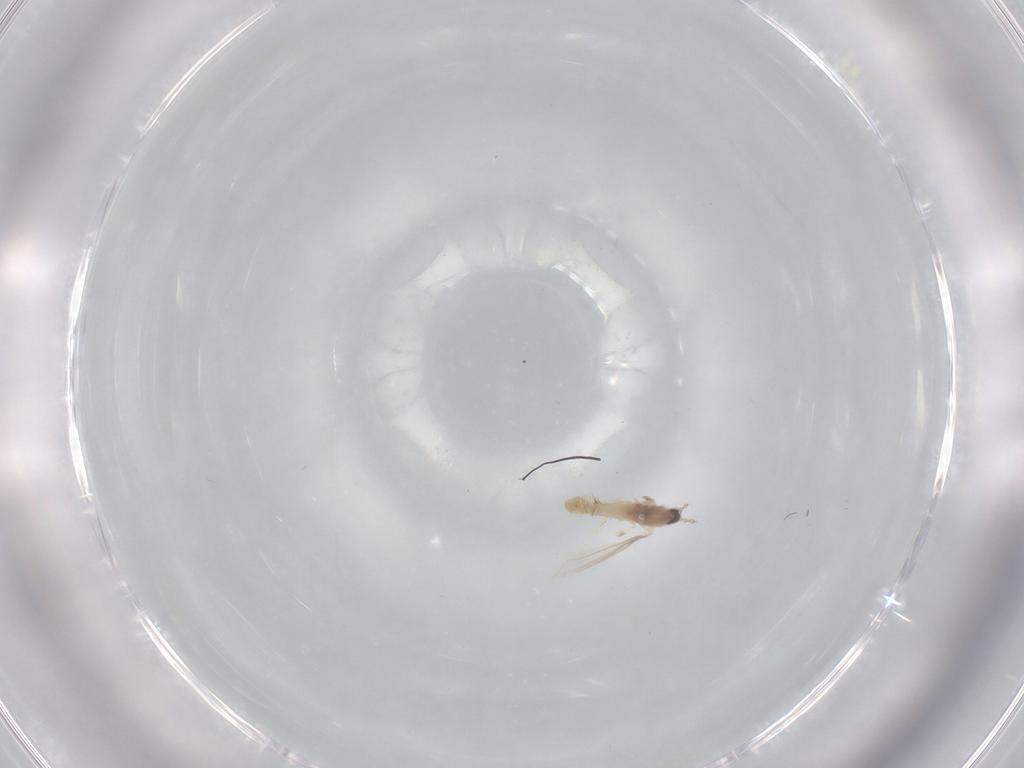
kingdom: Animalia
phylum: Arthropoda
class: Insecta
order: Diptera
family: Cecidomyiidae
